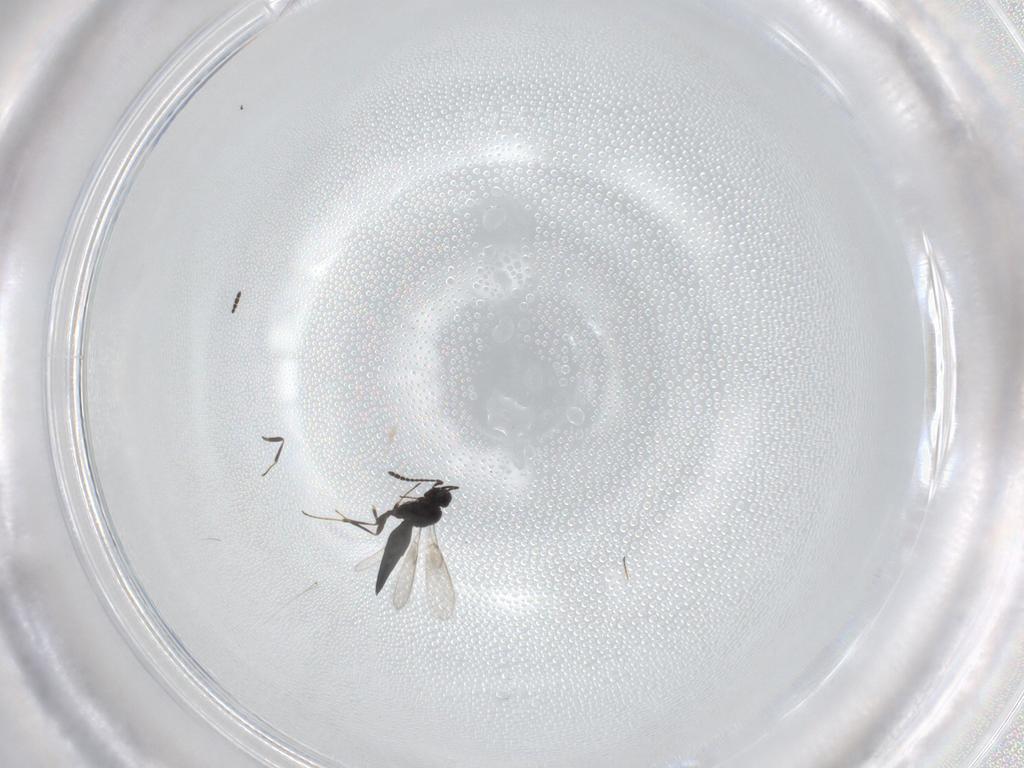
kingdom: Animalia
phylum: Arthropoda
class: Insecta
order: Hymenoptera
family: Scelionidae
